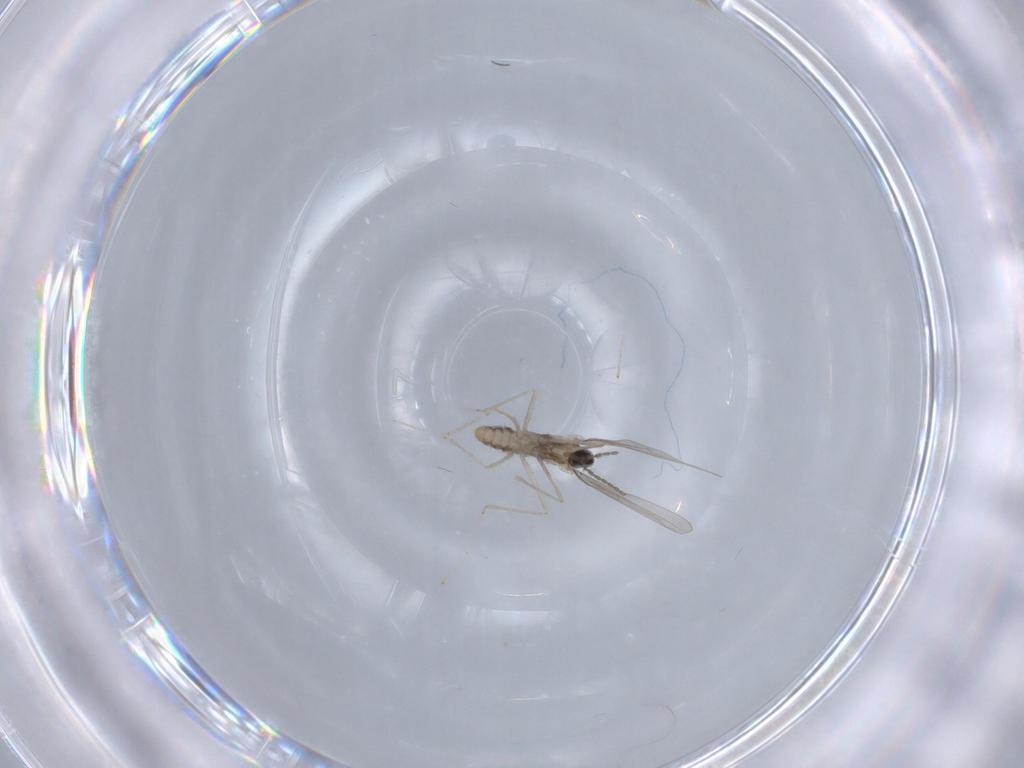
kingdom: Animalia
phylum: Arthropoda
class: Insecta
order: Diptera
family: Cecidomyiidae
